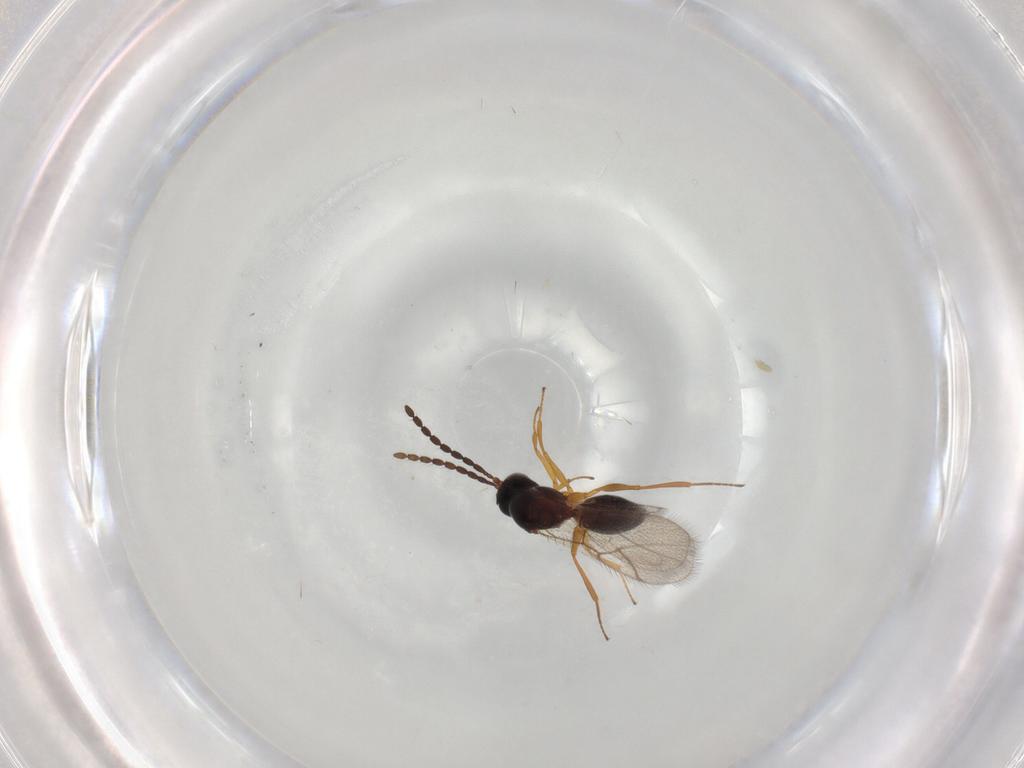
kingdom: Animalia
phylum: Arthropoda
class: Insecta
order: Hymenoptera
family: Figitidae
